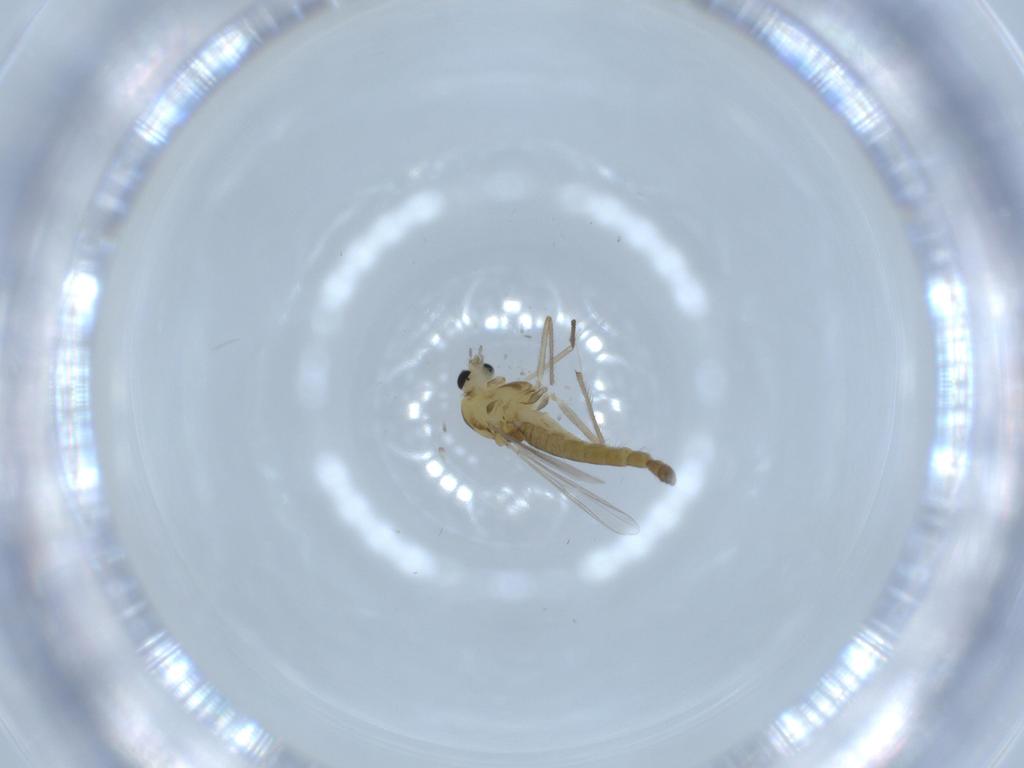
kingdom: Animalia
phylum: Arthropoda
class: Insecta
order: Diptera
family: Chironomidae
